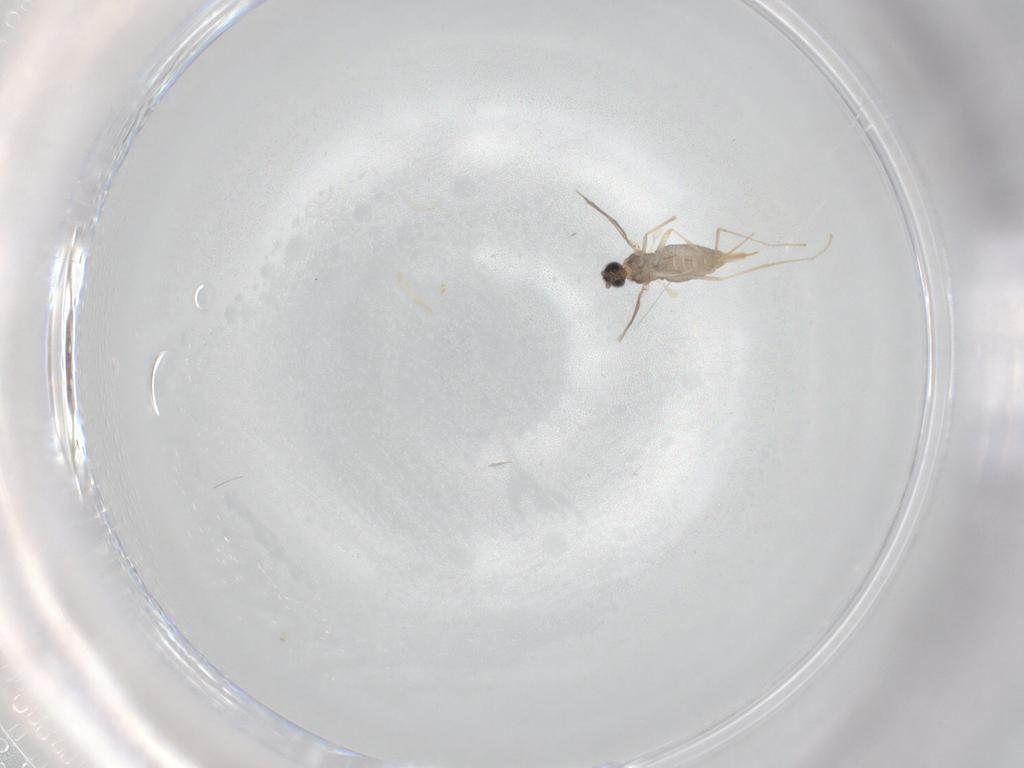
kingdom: Animalia
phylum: Arthropoda
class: Insecta
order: Diptera
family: Cecidomyiidae
